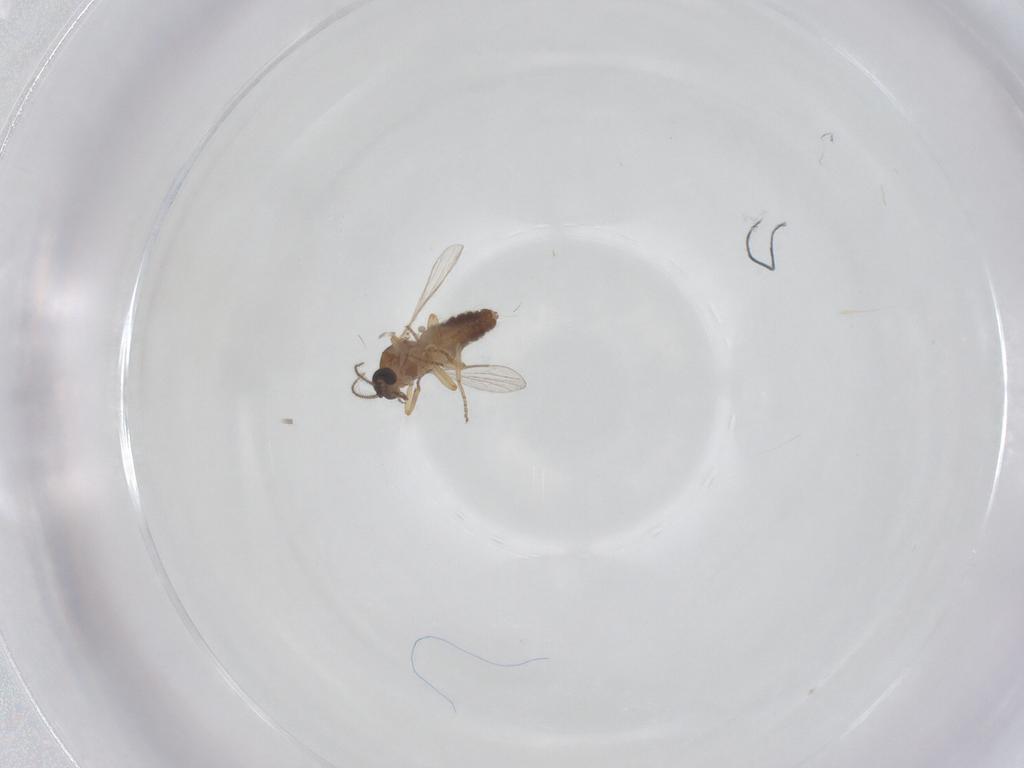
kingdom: Animalia
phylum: Arthropoda
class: Insecta
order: Diptera
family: Ceratopogonidae
